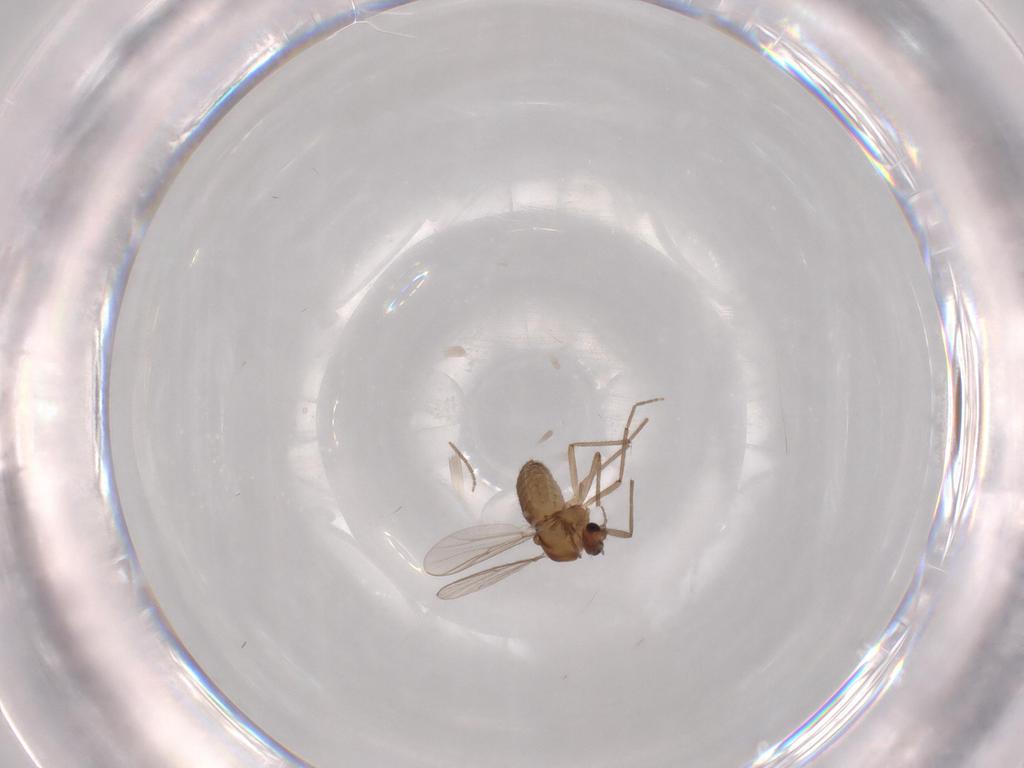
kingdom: Animalia
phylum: Arthropoda
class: Insecta
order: Diptera
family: Chironomidae
